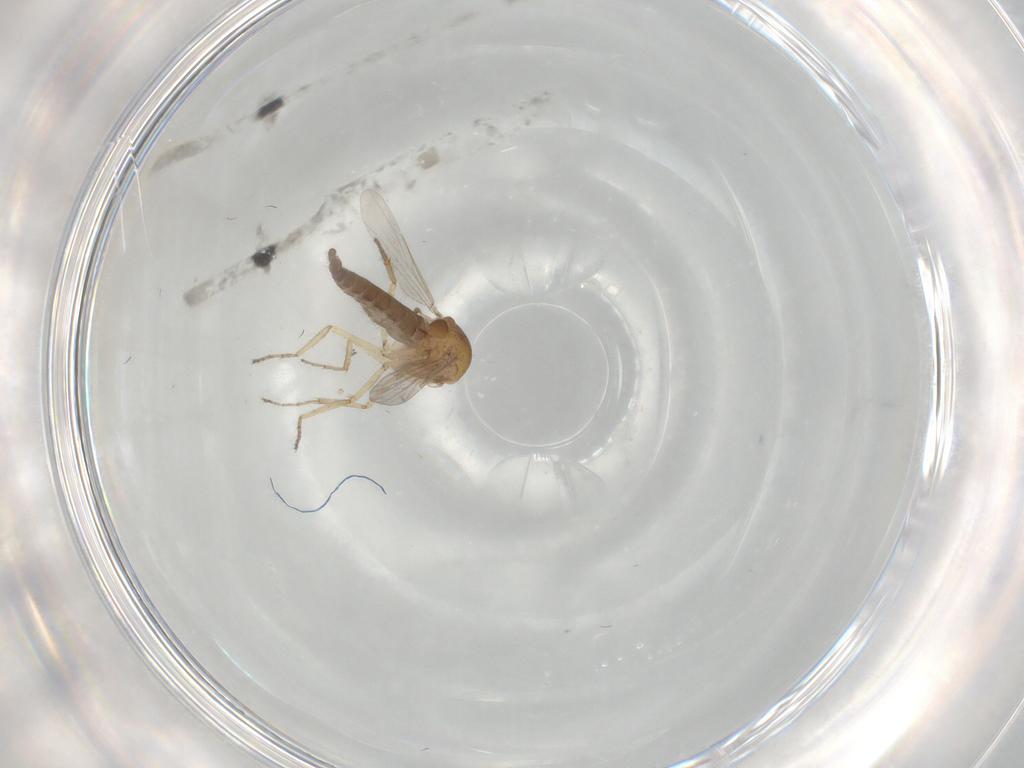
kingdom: Animalia
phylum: Arthropoda
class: Insecta
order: Diptera
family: Ceratopogonidae
